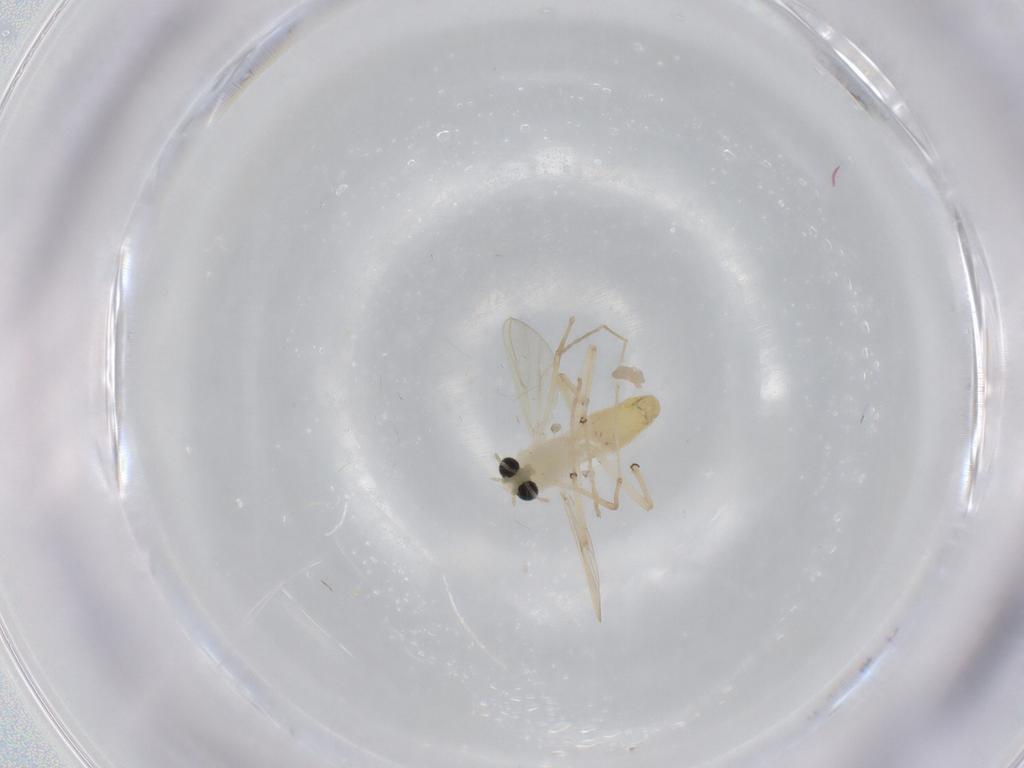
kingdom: Animalia
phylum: Arthropoda
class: Insecta
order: Diptera
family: Chironomidae
